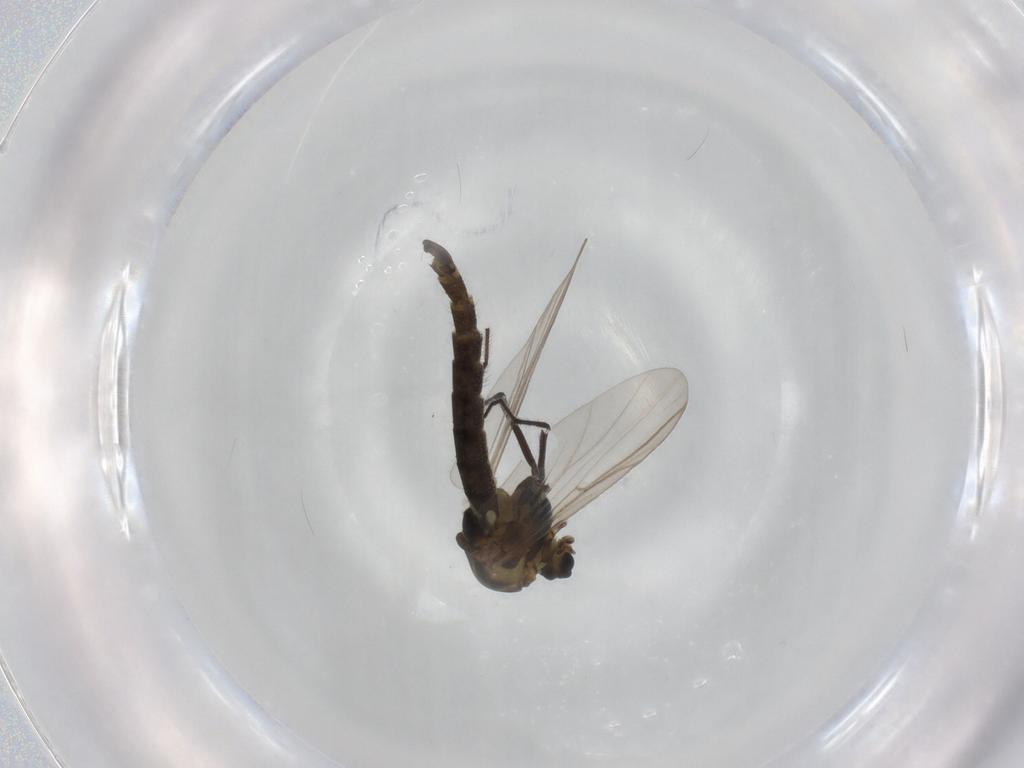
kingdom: Animalia
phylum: Arthropoda
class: Insecta
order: Diptera
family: Chironomidae
